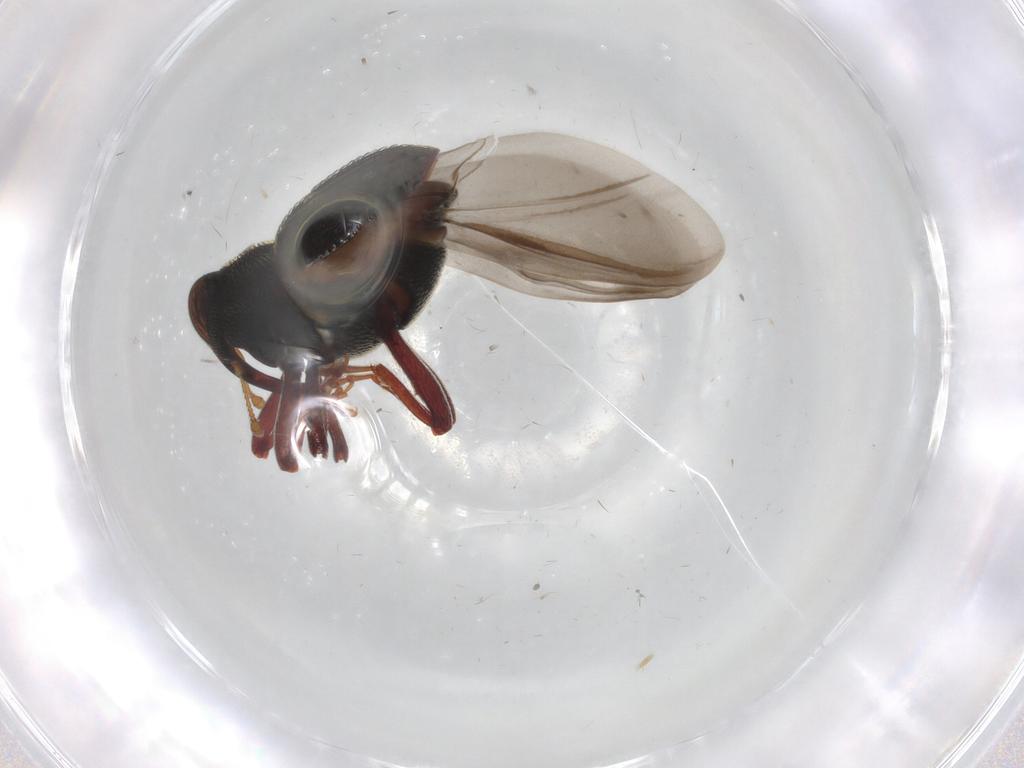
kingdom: Animalia
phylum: Arthropoda
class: Insecta
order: Coleoptera
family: Curculionidae
